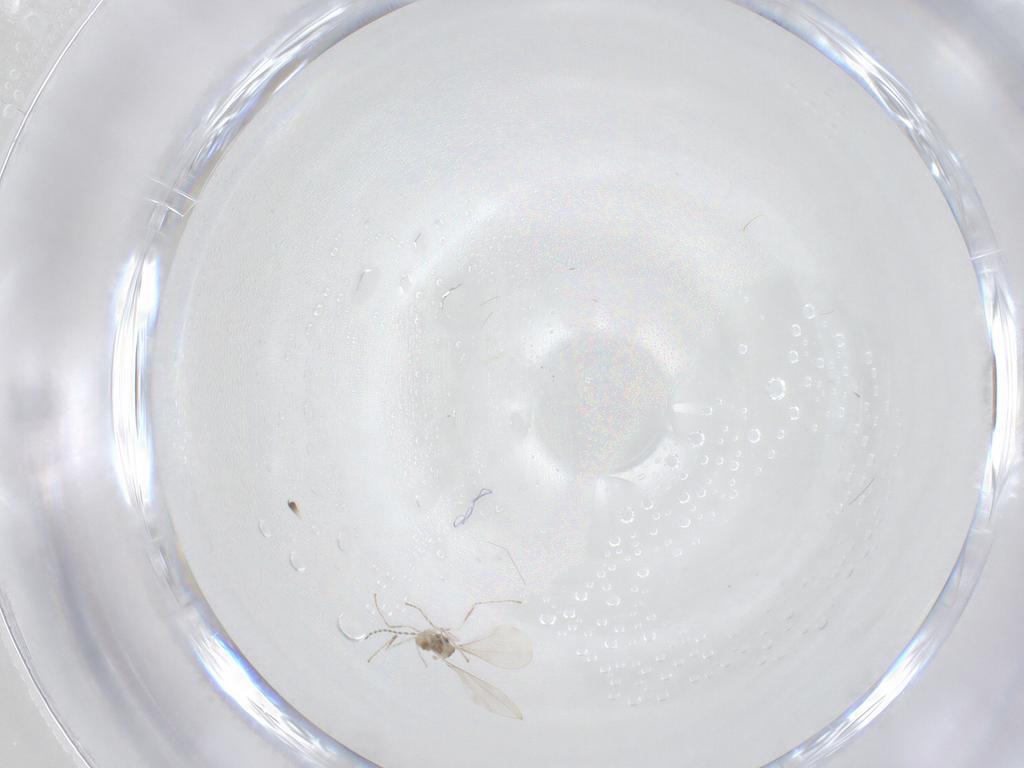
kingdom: Animalia
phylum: Arthropoda
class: Insecta
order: Diptera
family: Cecidomyiidae
